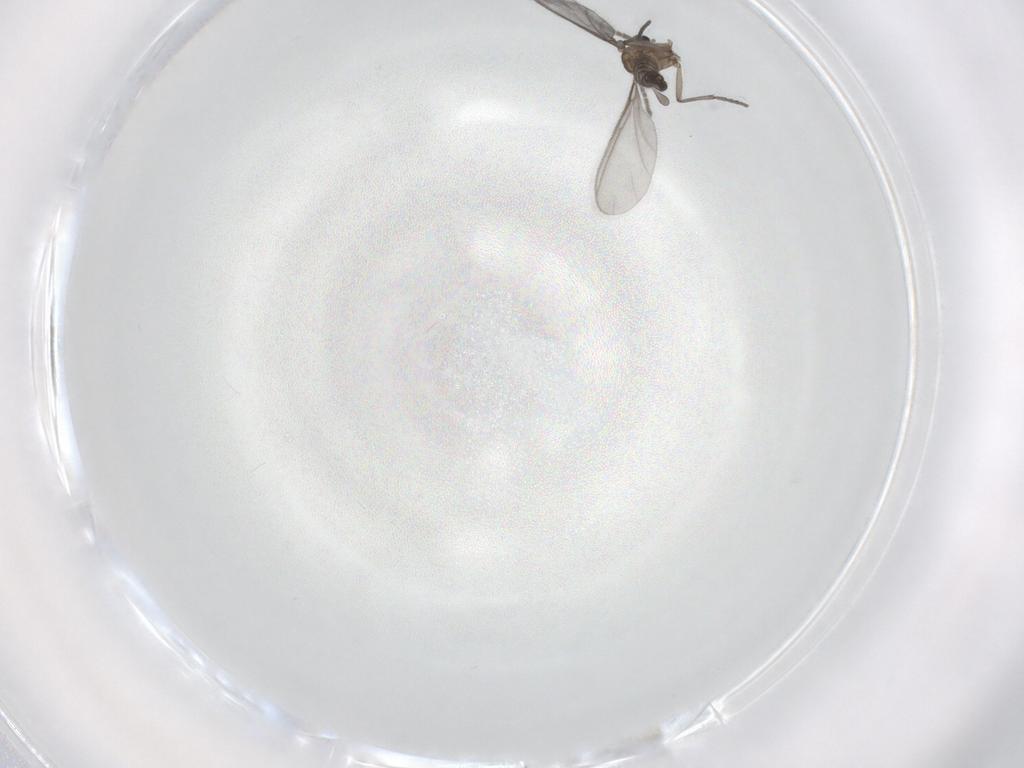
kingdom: Animalia
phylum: Arthropoda
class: Insecta
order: Diptera
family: Sciaridae
